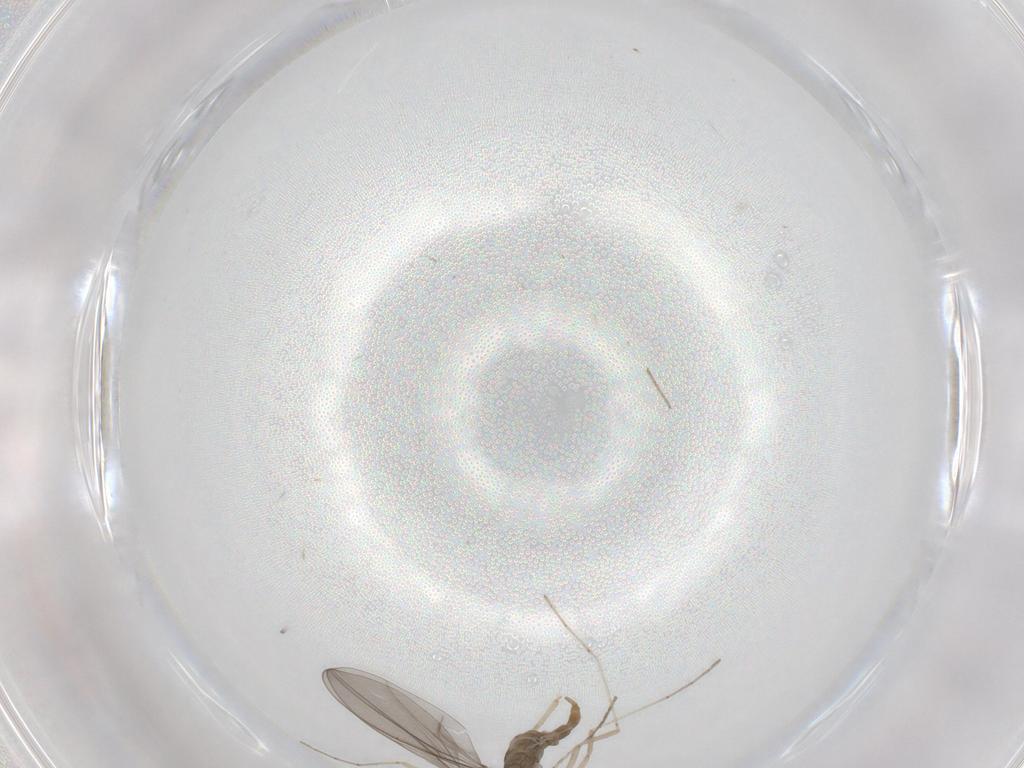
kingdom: Animalia
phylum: Arthropoda
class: Insecta
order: Diptera
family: Cecidomyiidae
